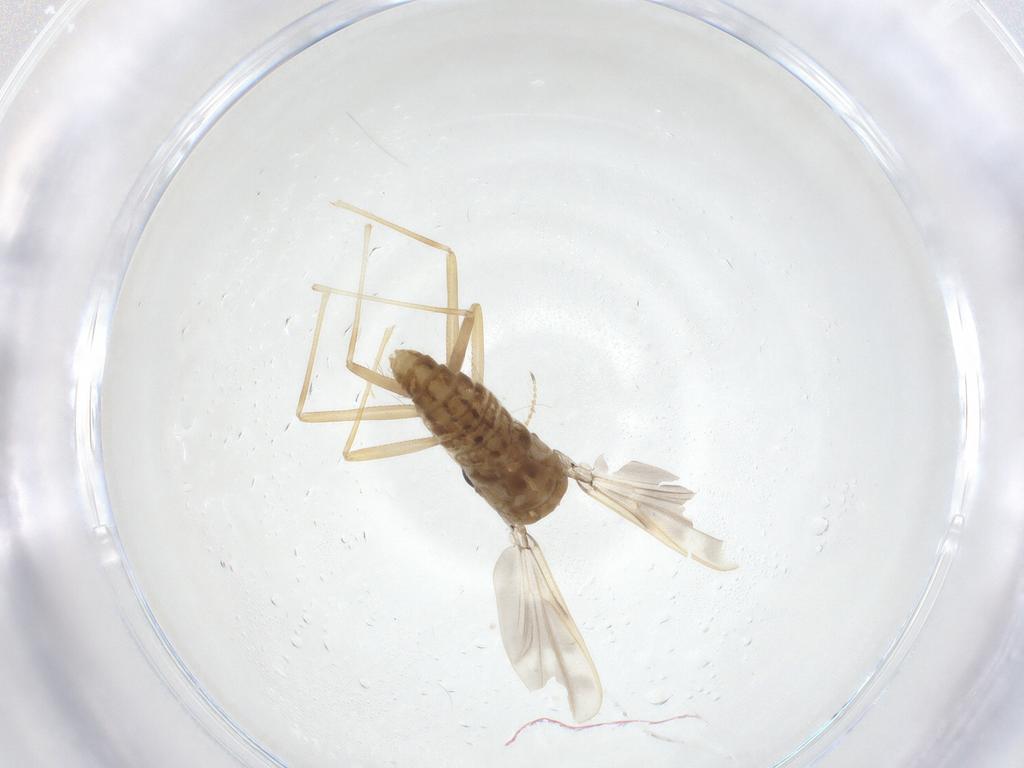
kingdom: Animalia
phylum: Arthropoda
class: Insecta
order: Diptera
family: Chironomidae
